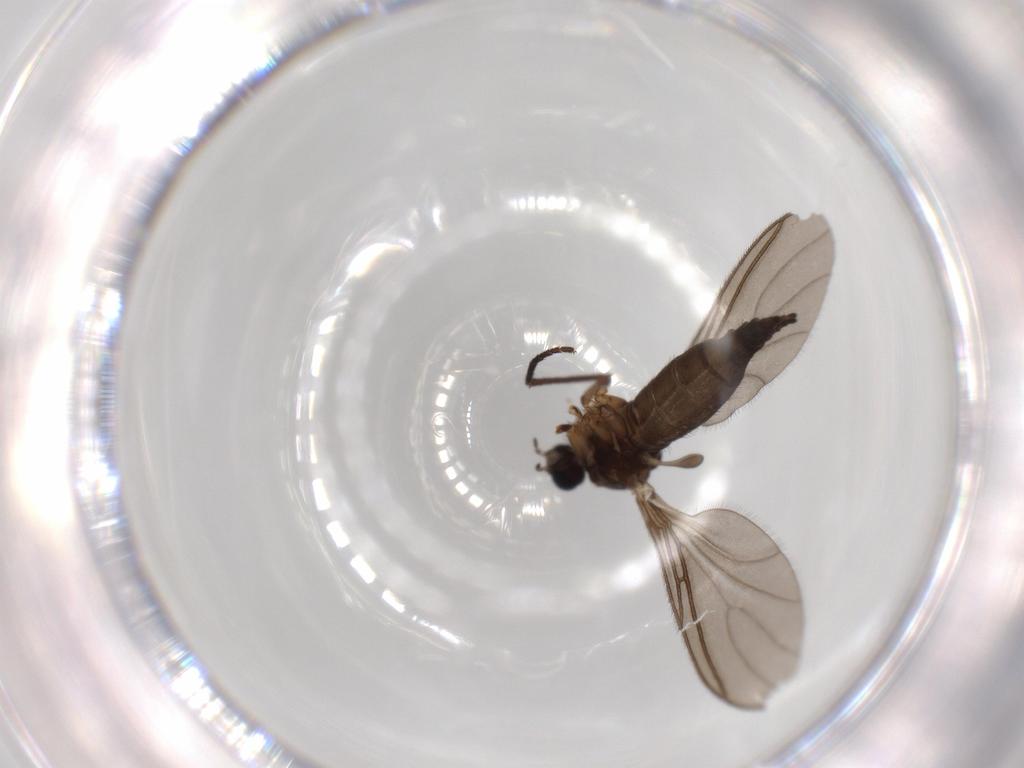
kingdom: Animalia
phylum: Arthropoda
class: Insecta
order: Diptera
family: Sciaridae
